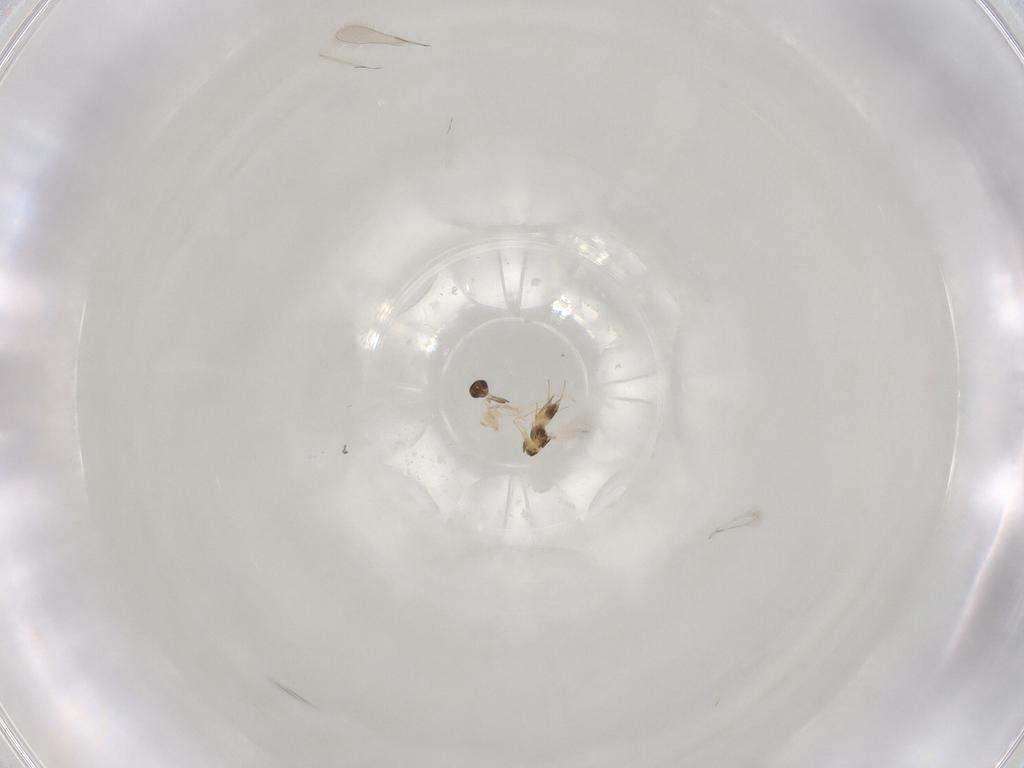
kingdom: Animalia
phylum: Arthropoda
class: Insecta
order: Hymenoptera
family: Mymaridae
